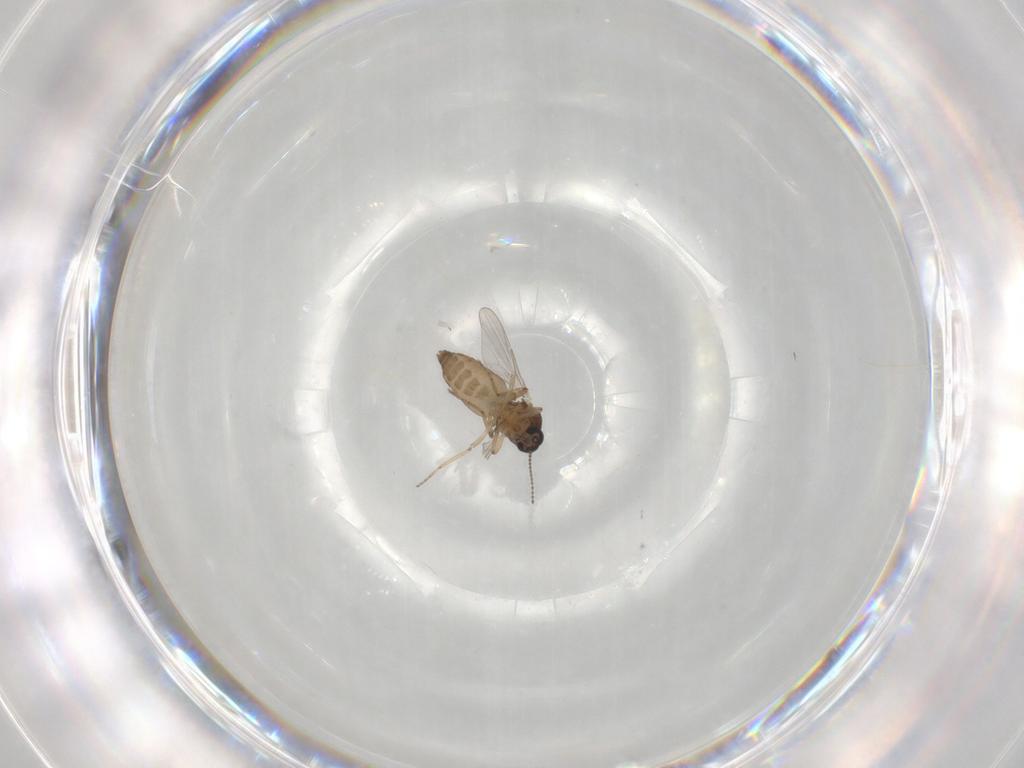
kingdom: Animalia
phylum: Arthropoda
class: Insecta
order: Diptera
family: Ceratopogonidae
